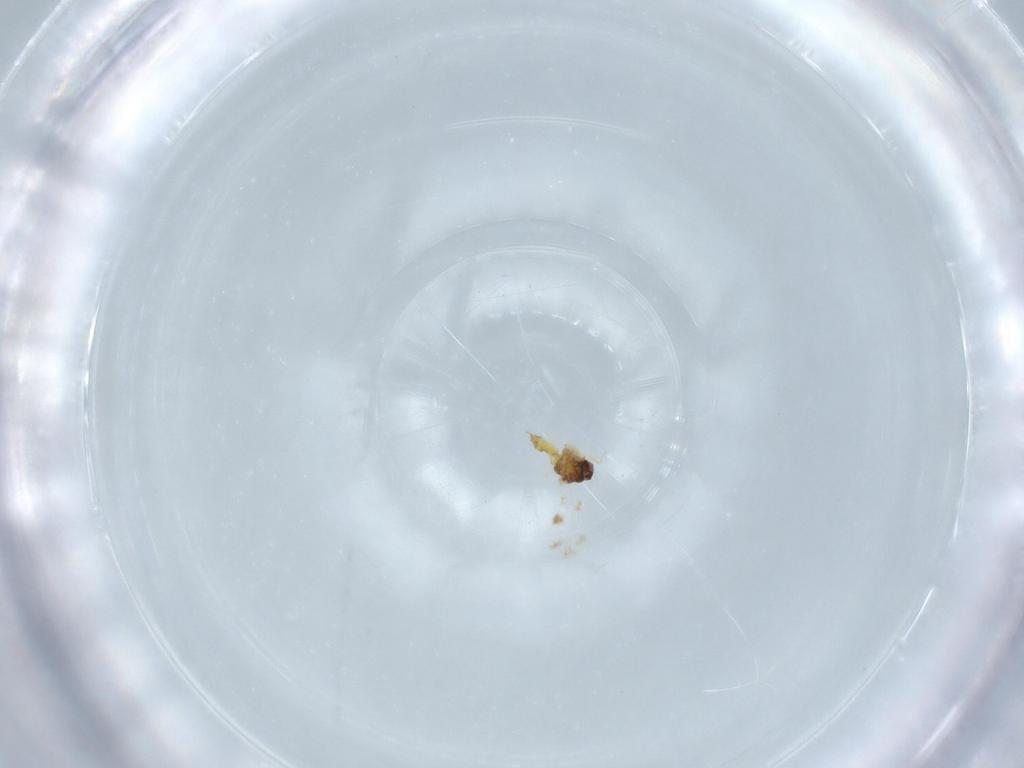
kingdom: Animalia
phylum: Arthropoda
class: Insecta
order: Hemiptera
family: Aleyrodidae
